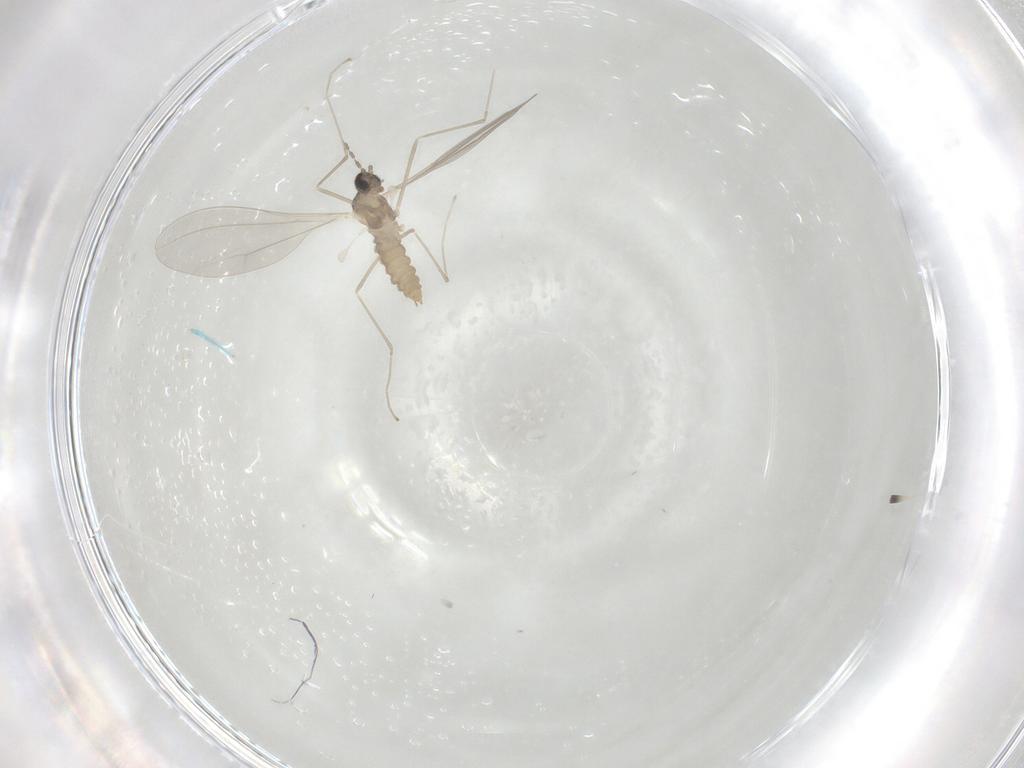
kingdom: Animalia
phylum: Arthropoda
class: Insecta
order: Diptera
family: Cecidomyiidae
